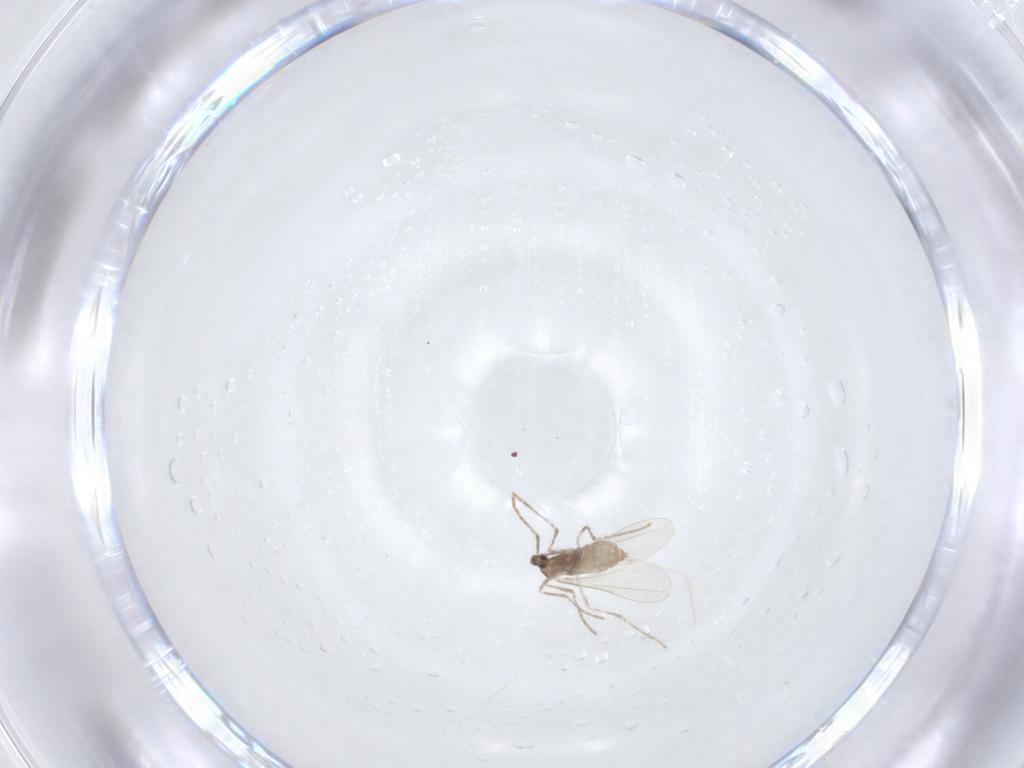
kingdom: Animalia
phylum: Arthropoda
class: Insecta
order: Diptera
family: Cecidomyiidae
